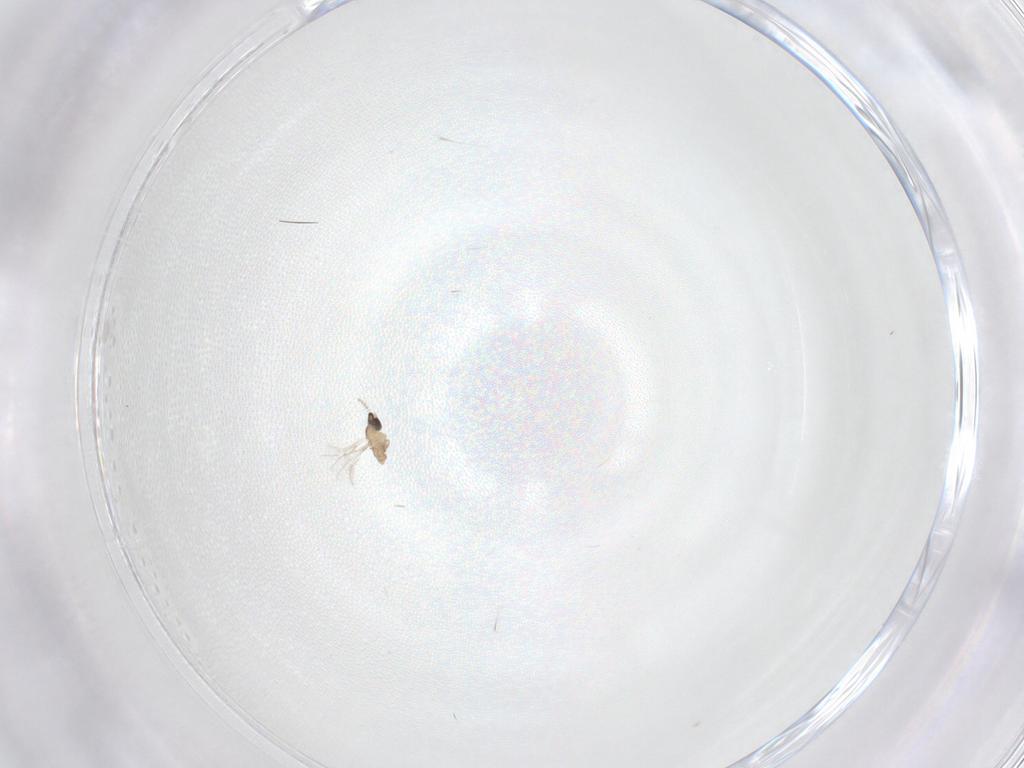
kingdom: Animalia
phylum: Arthropoda
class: Insecta
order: Diptera
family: Cecidomyiidae
